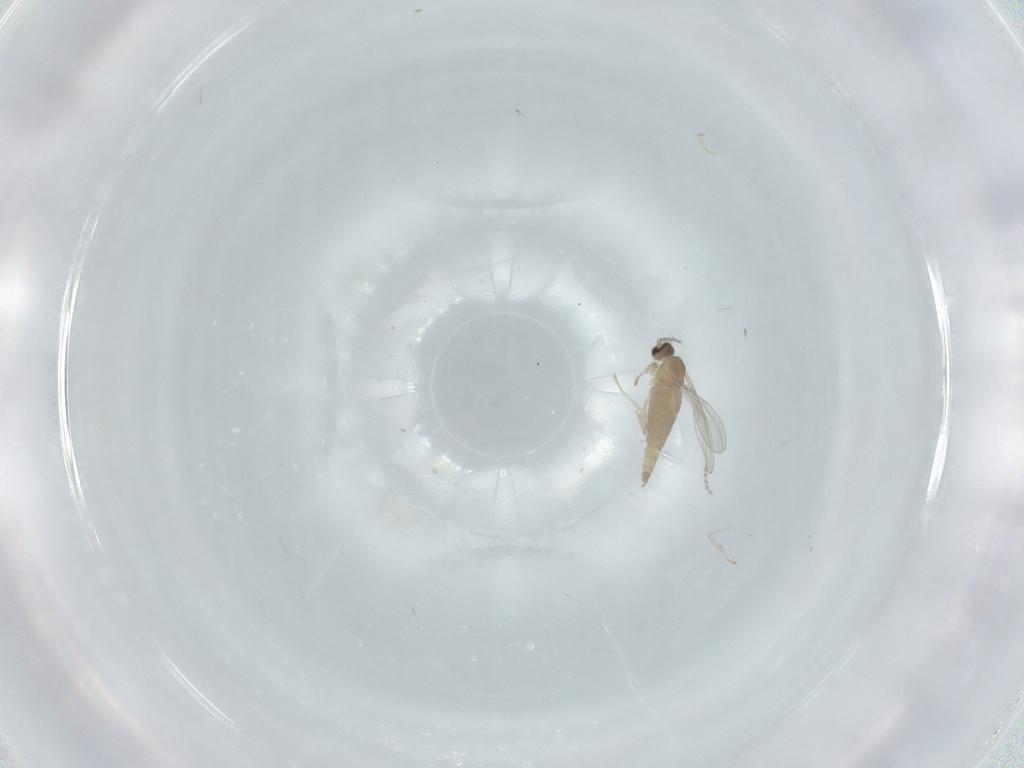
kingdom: Animalia
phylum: Arthropoda
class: Insecta
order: Diptera
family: Cecidomyiidae
